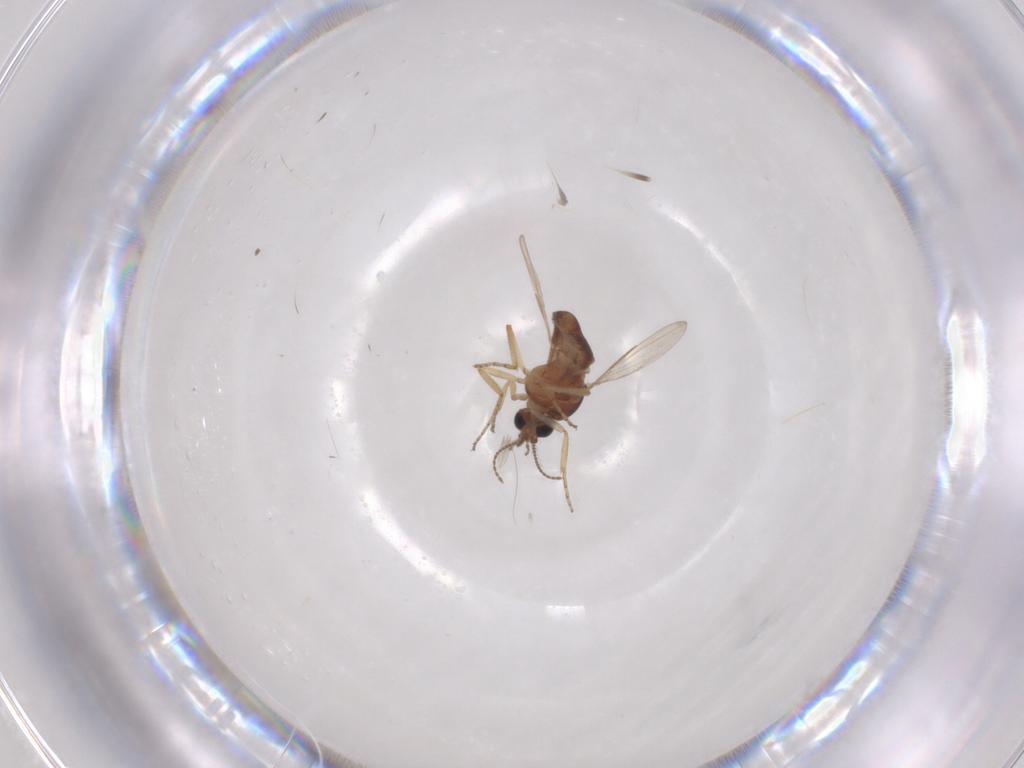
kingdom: Animalia
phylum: Arthropoda
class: Insecta
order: Diptera
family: Ceratopogonidae
